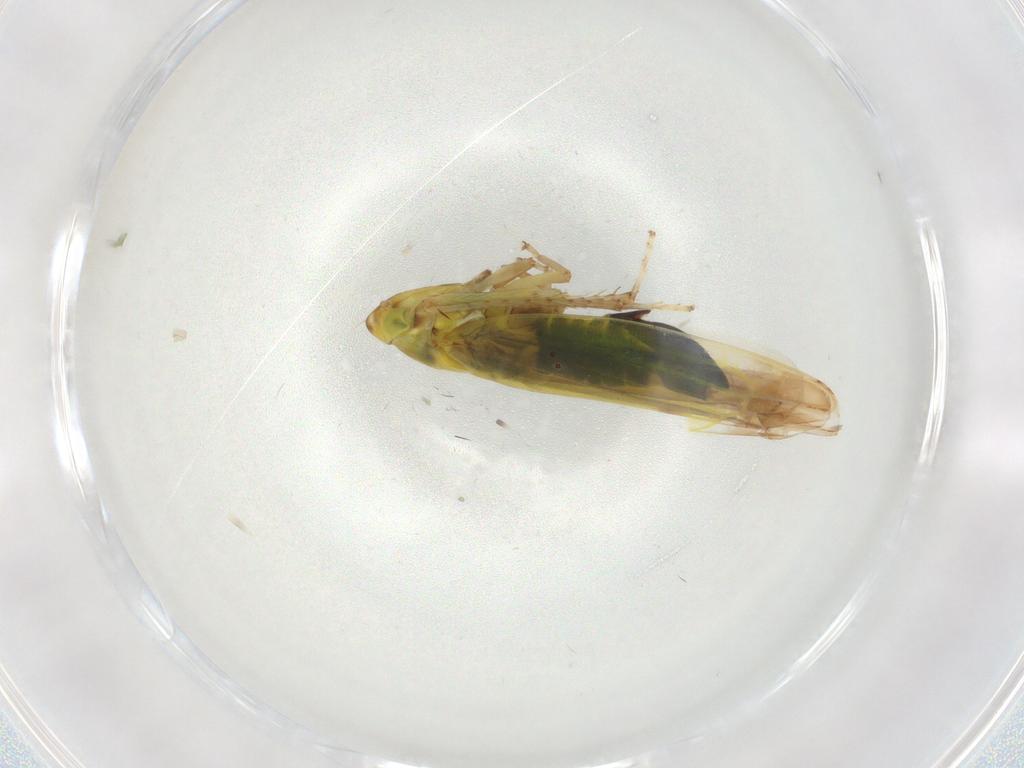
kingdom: Animalia
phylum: Arthropoda
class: Insecta
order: Hemiptera
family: Cicadellidae
